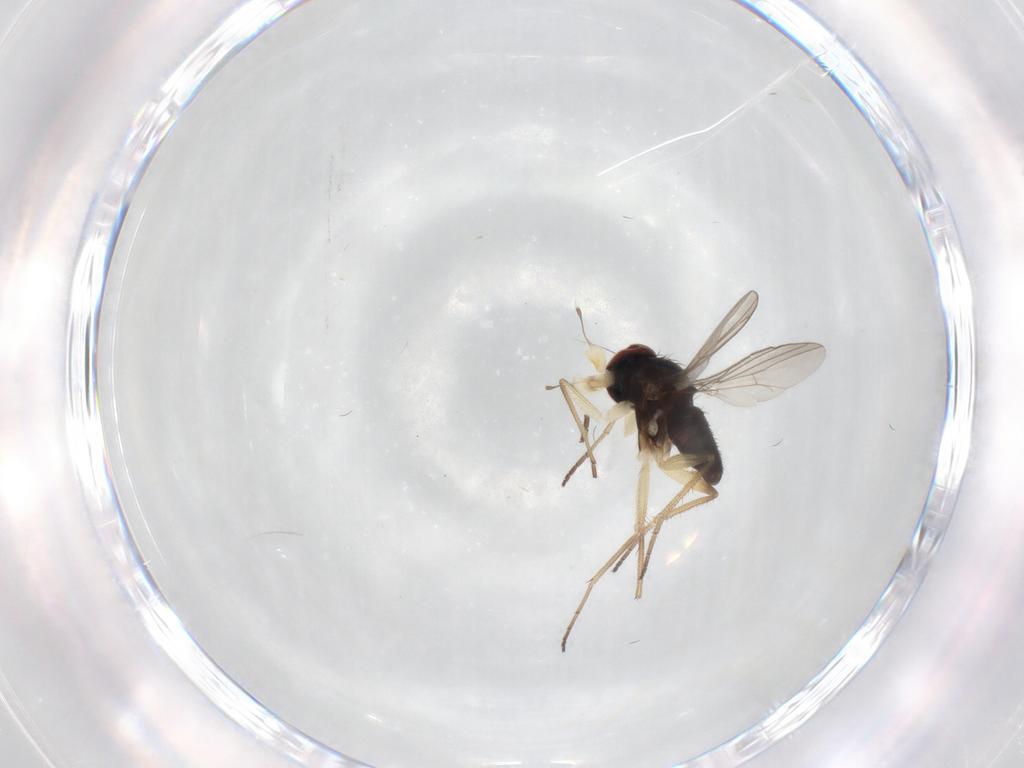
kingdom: Animalia
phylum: Arthropoda
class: Insecta
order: Diptera
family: Dolichopodidae
